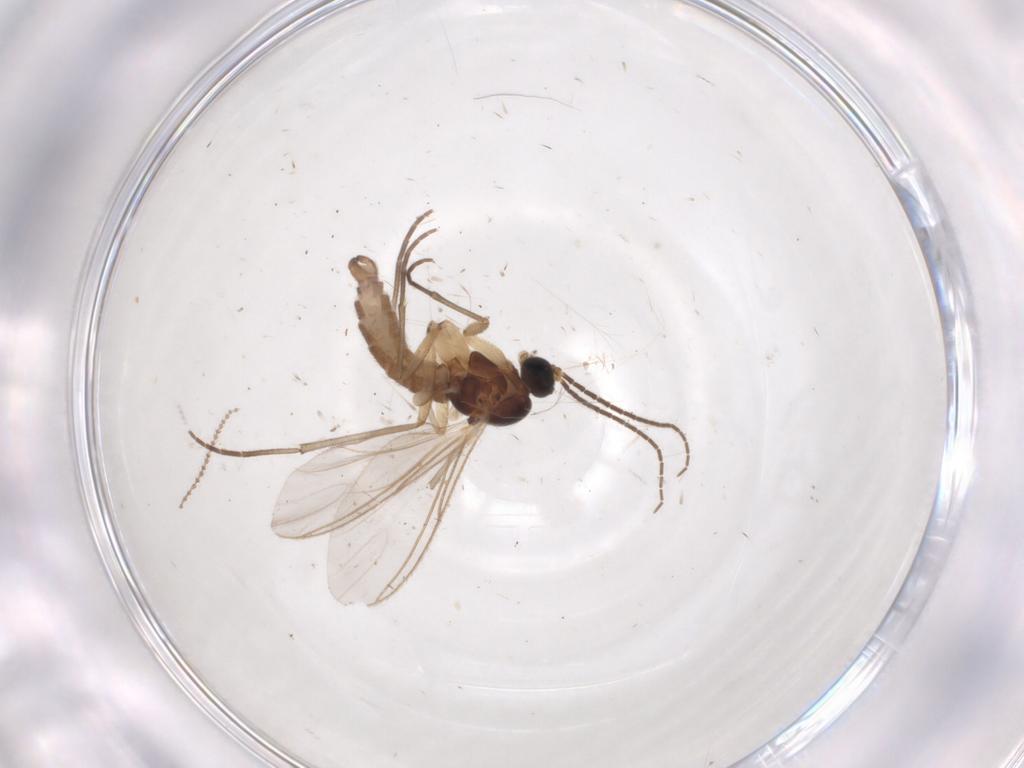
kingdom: Animalia
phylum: Arthropoda
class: Insecta
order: Diptera
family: Sciaridae
